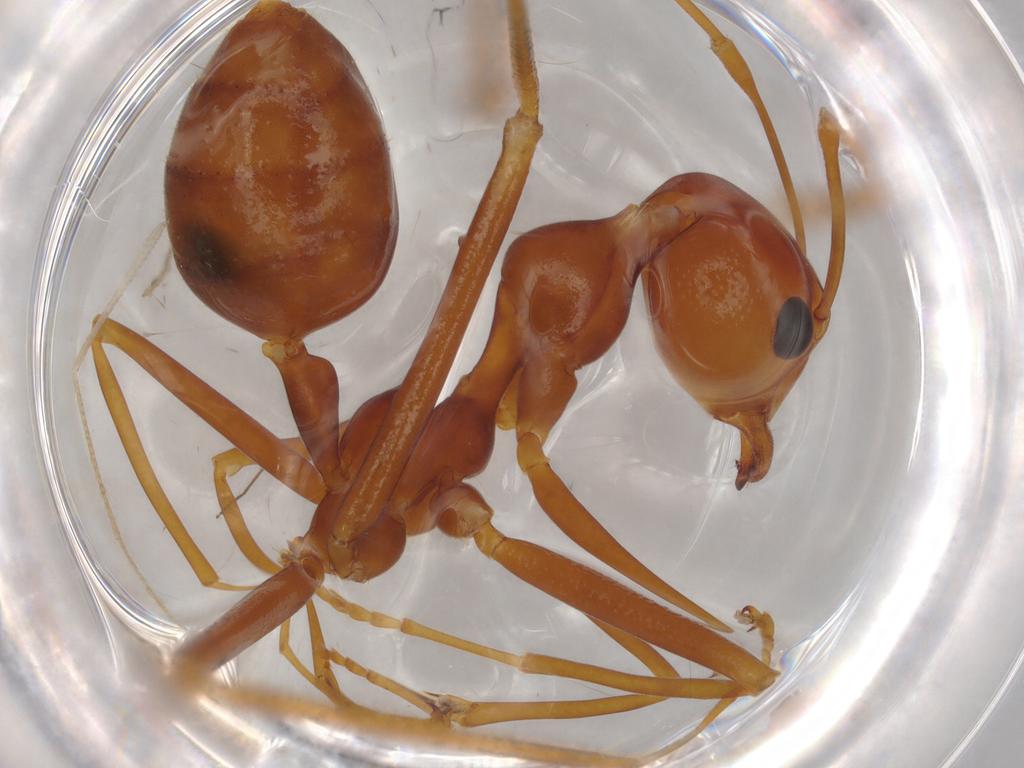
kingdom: Animalia
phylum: Arthropoda
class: Insecta
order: Hymenoptera
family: Formicidae
